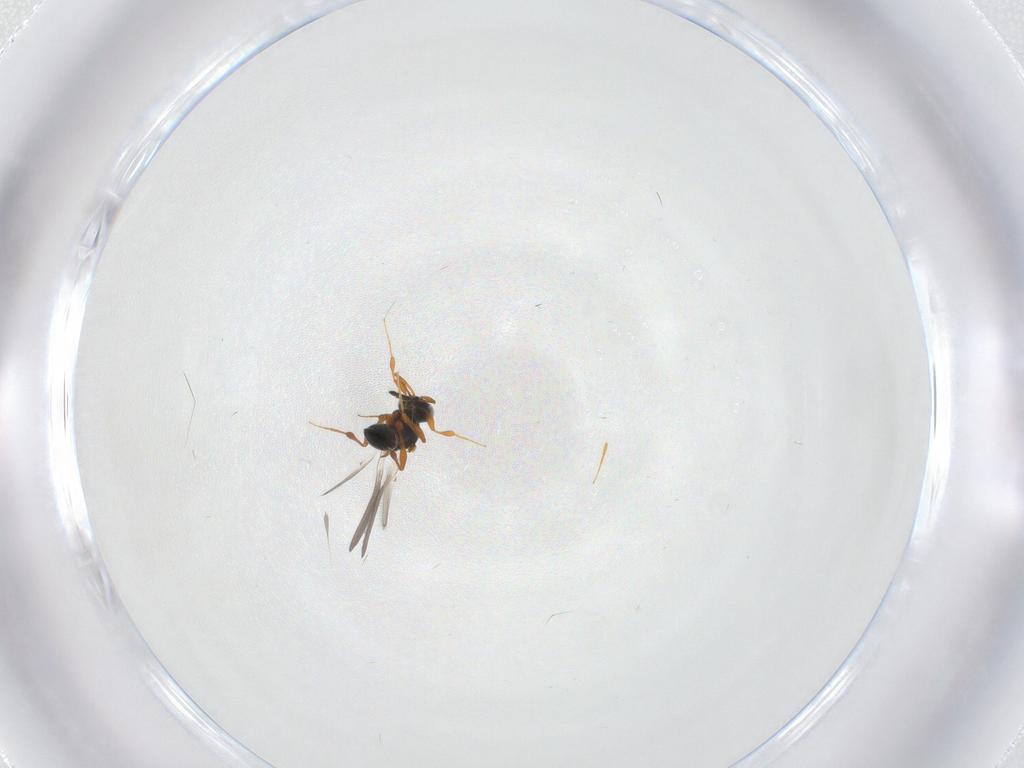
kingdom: Animalia
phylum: Arthropoda
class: Insecta
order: Hymenoptera
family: Platygastridae
